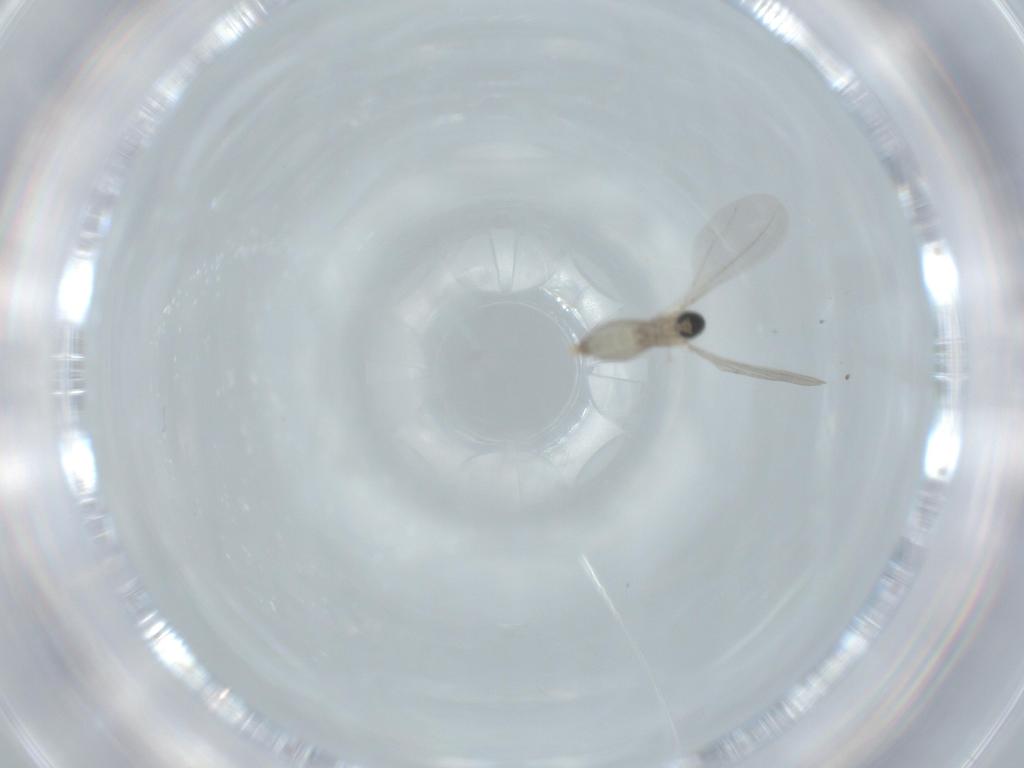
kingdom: Animalia
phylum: Arthropoda
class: Insecta
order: Diptera
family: Cecidomyiidae
